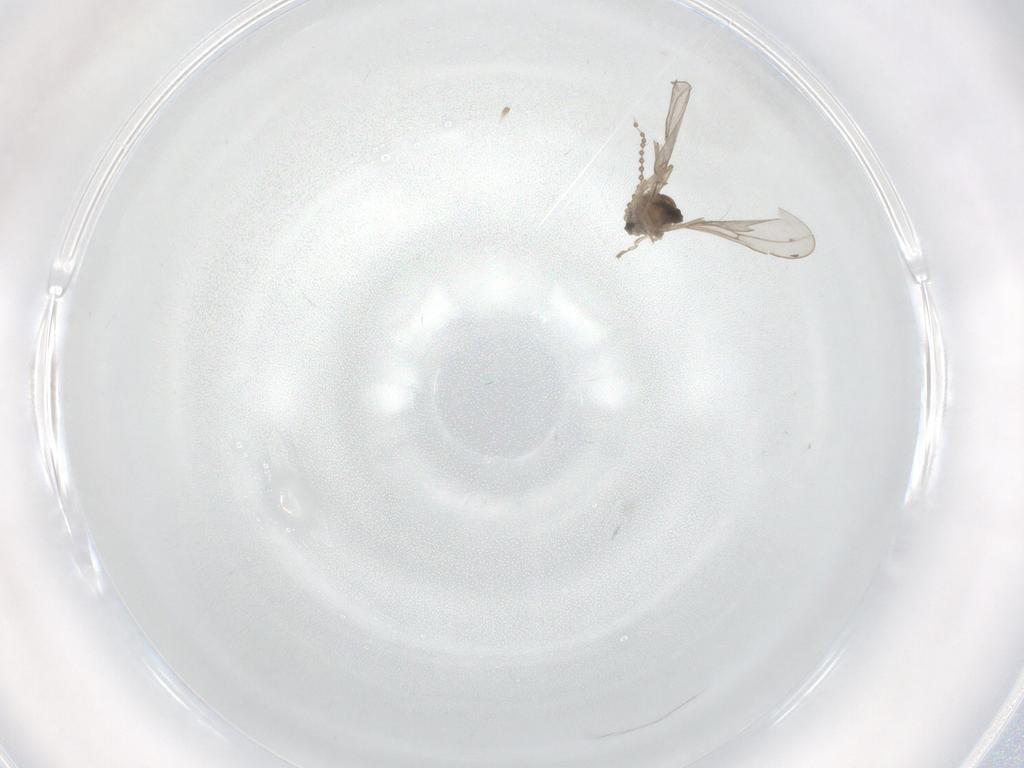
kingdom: Animalia
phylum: Arthropoda
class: Insecta
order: Diptera
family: Cecidomyiidae
